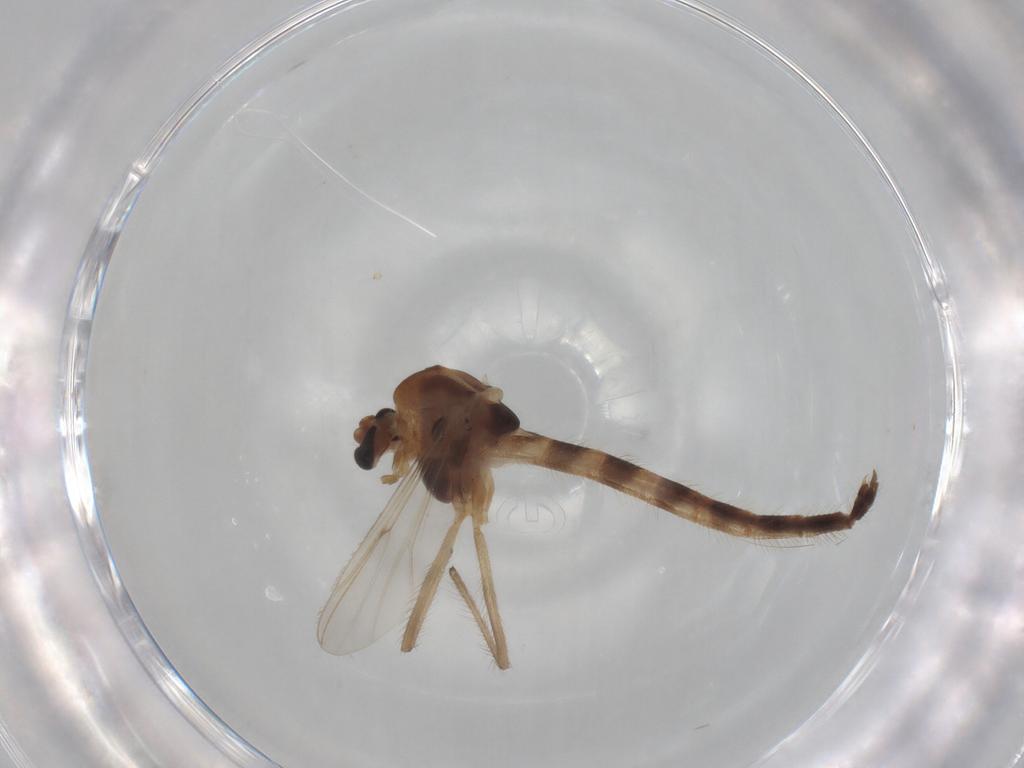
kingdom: Animalia
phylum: Arthropoda
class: Insecta
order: Diptera
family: Chironomidae
